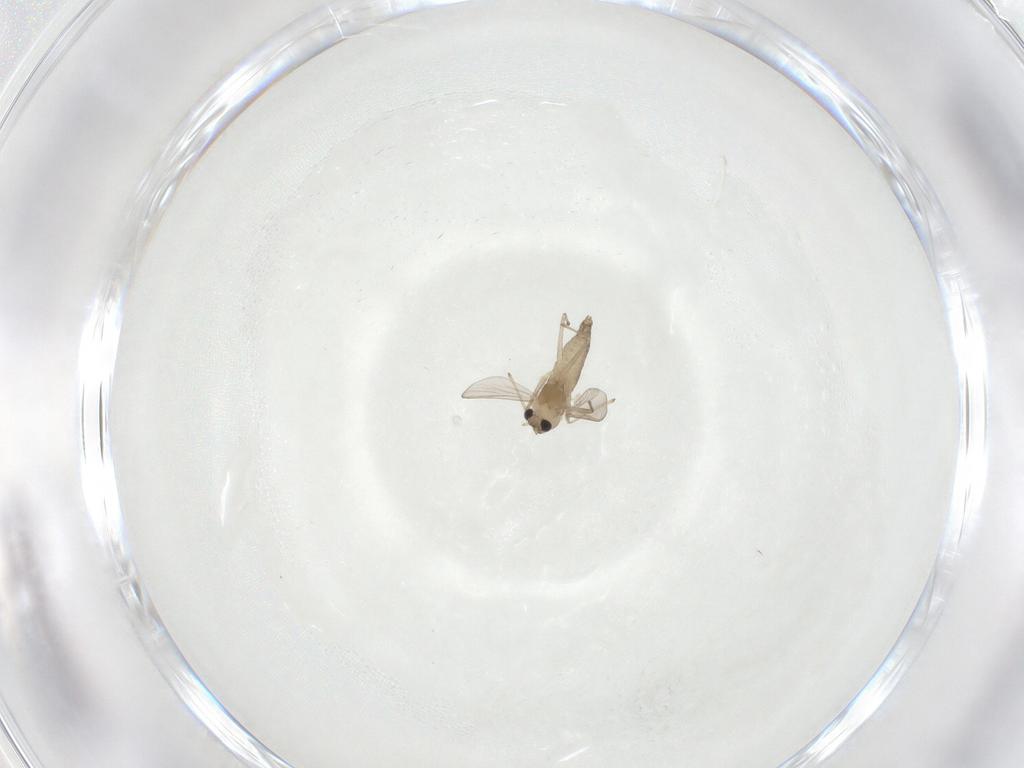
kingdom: Animalia
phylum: Arthropoda
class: Insecta
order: Diptera
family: Chironomidae
